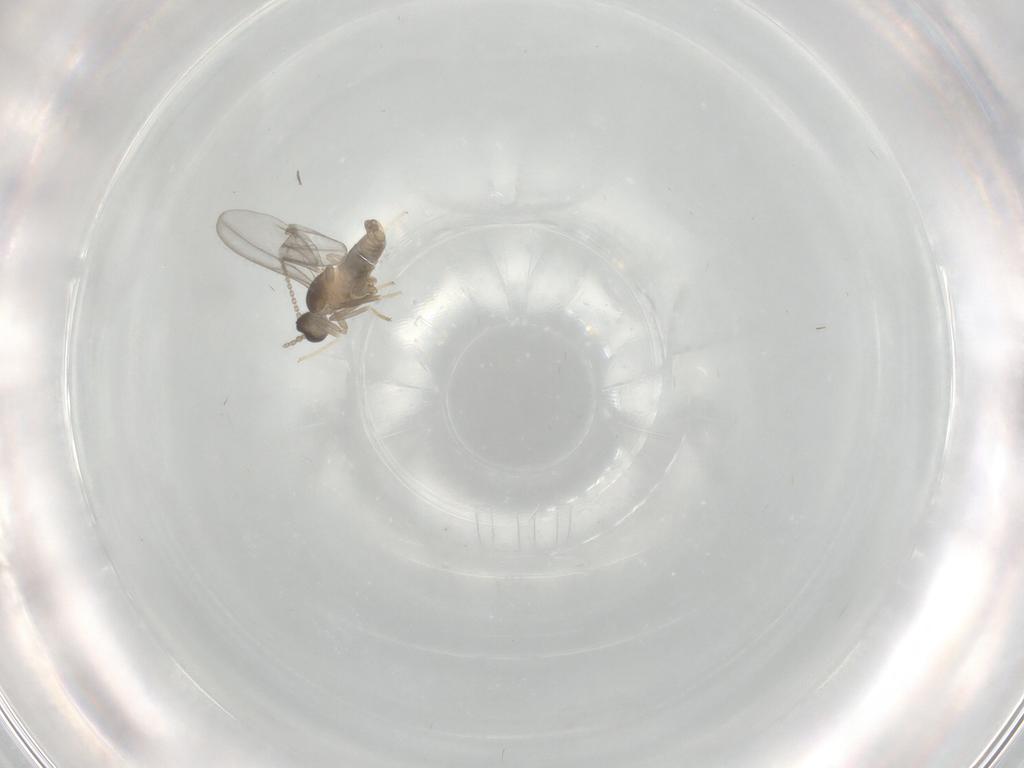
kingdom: Animalia
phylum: Arthropoda
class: Insecta
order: Diptera
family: Cecidomyiidae
